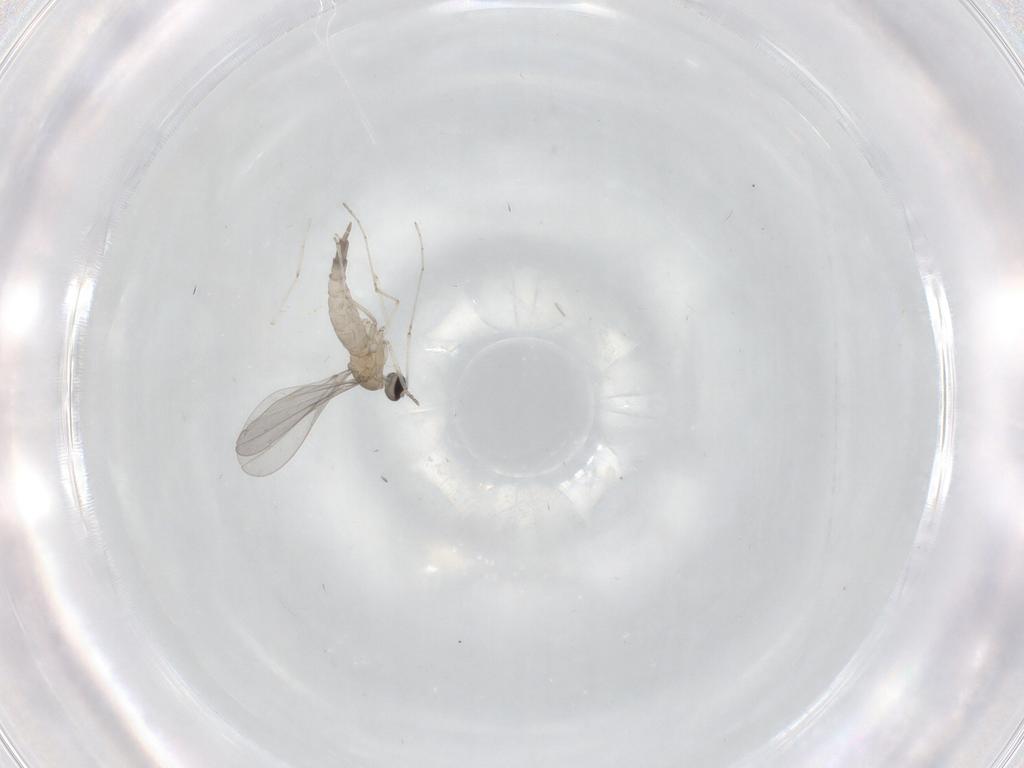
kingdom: Animalia
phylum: Arthropoda
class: Insecta
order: Diptera
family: Cecidomyiidae
